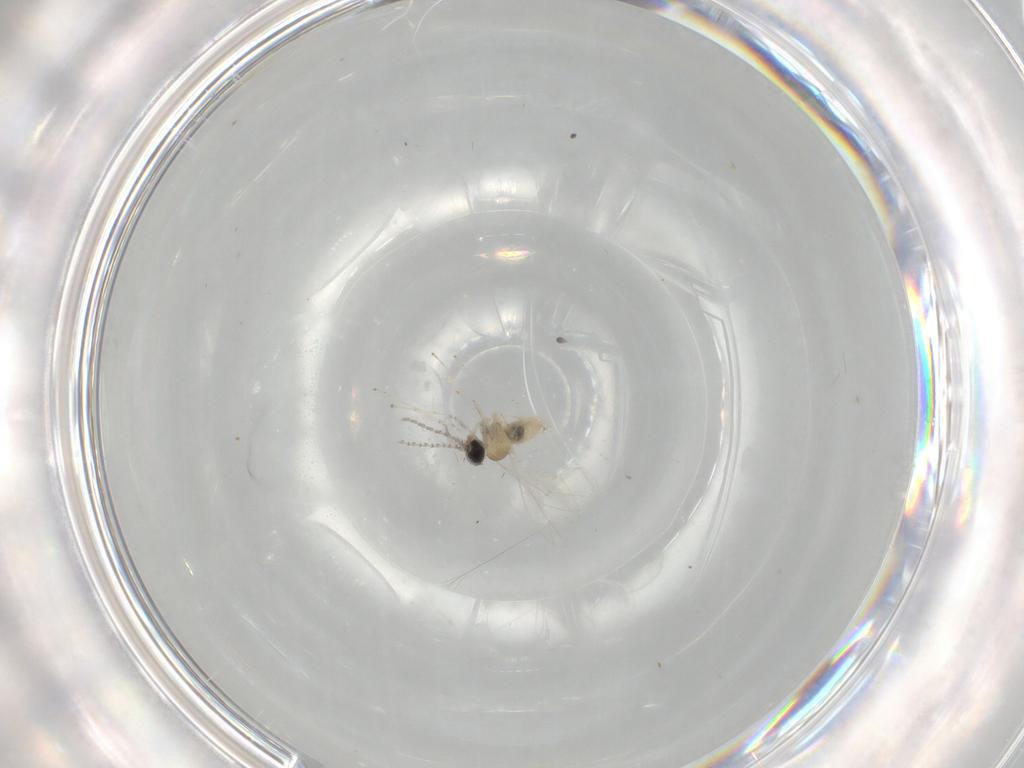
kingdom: Animalia
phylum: Arthropoda
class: Insecta
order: Diptera
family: Cecidomyiidae
